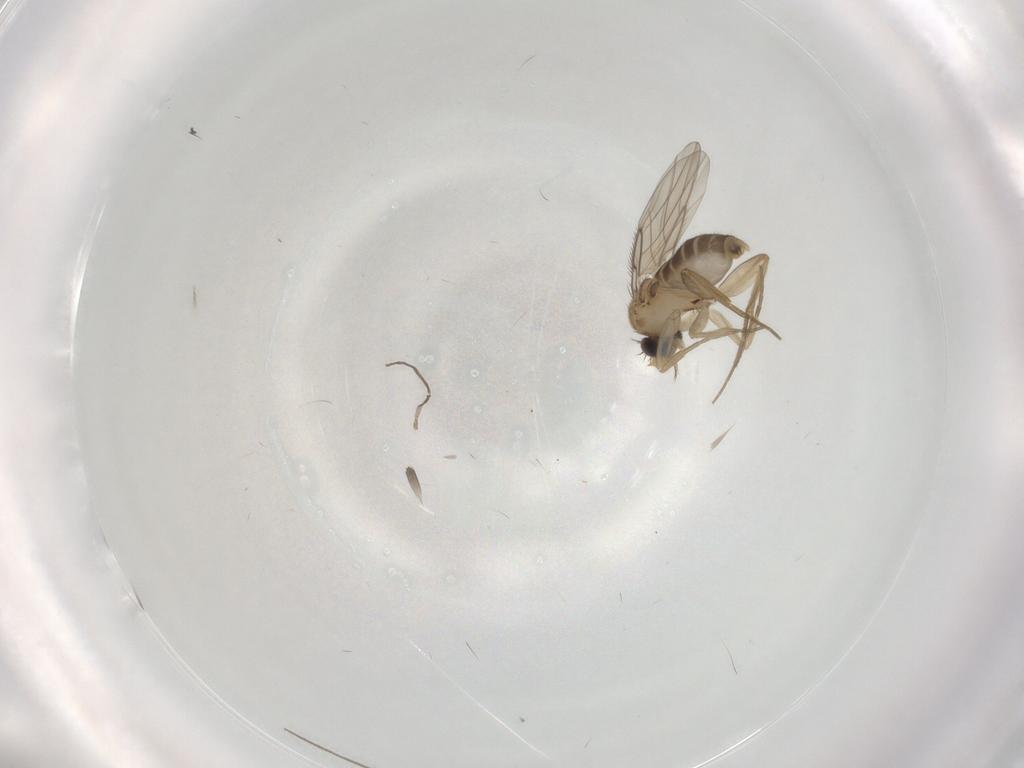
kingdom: Animalia
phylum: Arthropoda
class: Insecta
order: Diptera
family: Phoridae
